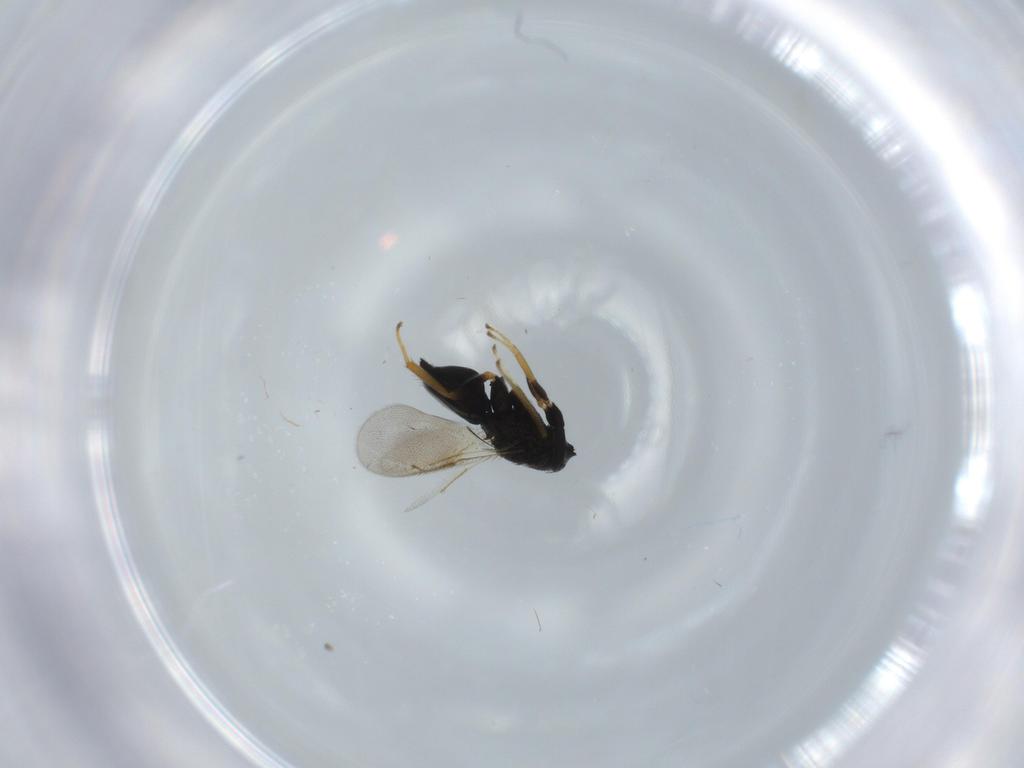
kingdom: Animalia
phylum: Arthropoda
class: Insecta
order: Hymenoptera
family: Pteromalidae
